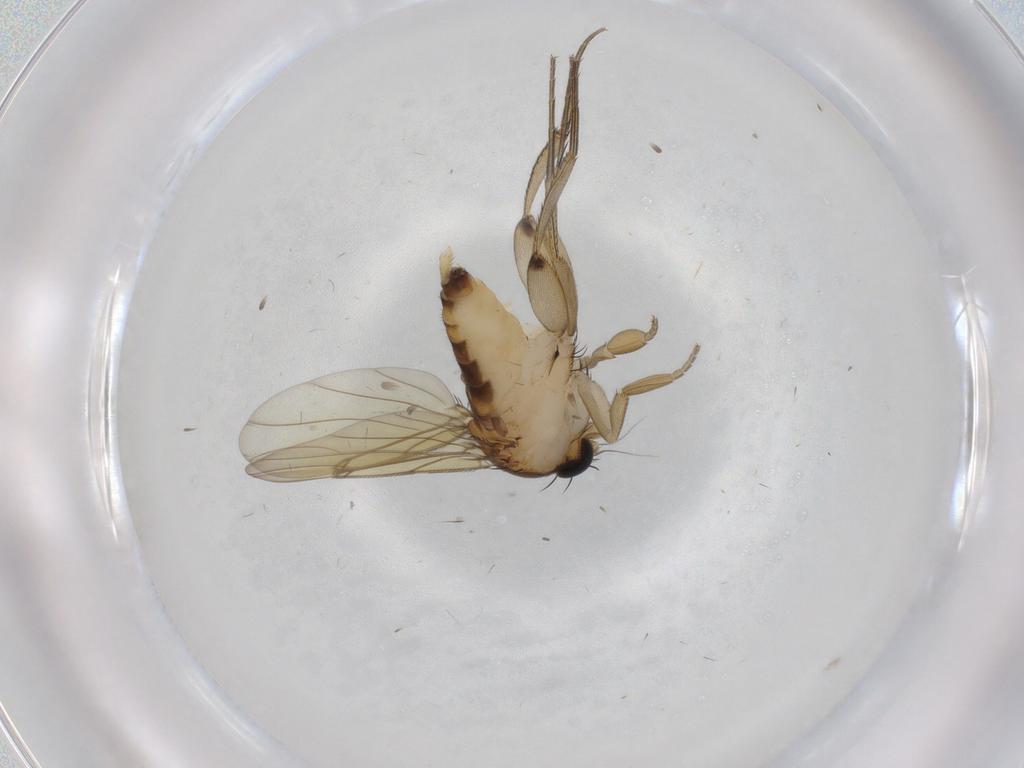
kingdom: Animalia
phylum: Arthropoda
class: Insecta
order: Diptera
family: Phoridae
